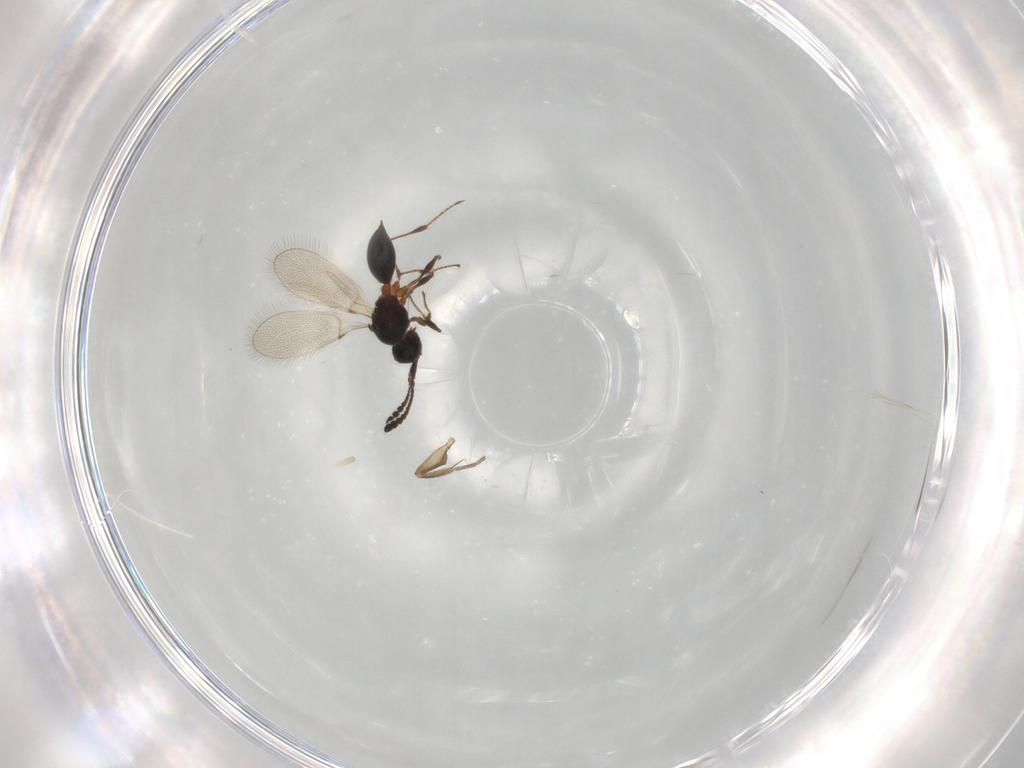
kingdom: Animalia
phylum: Arthropoda
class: Insecta
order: Hymenoptera
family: Diapriidae
